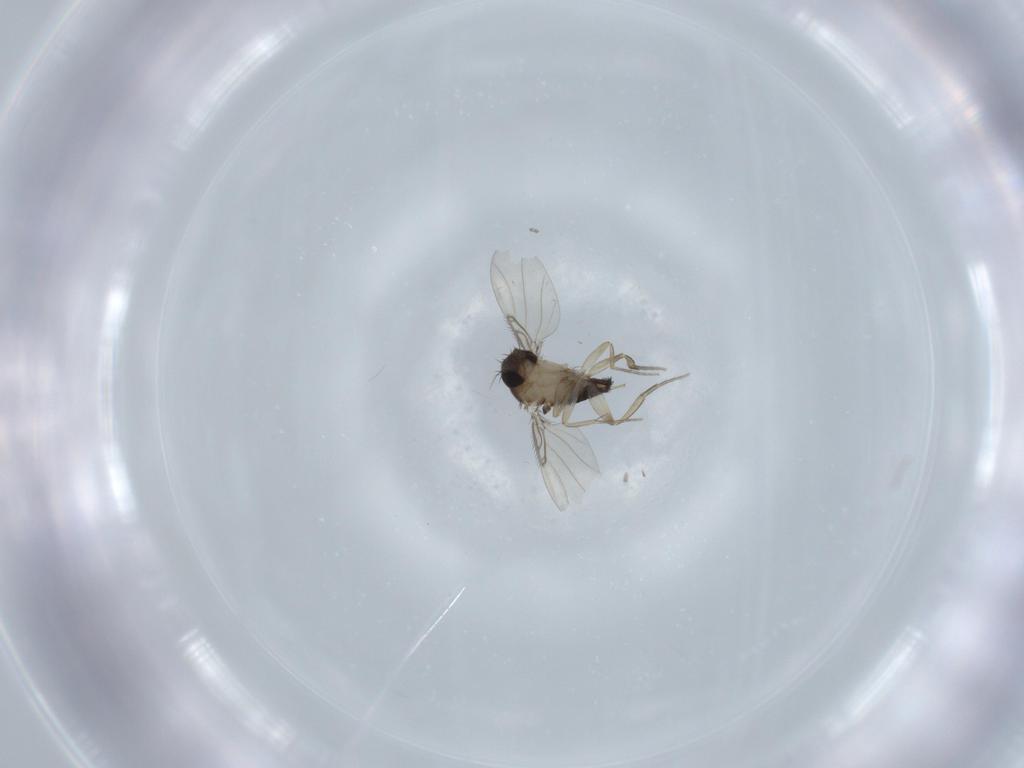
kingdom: Animalia
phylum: Arthropoda
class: Insecta
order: Diptera
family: Phoridae
